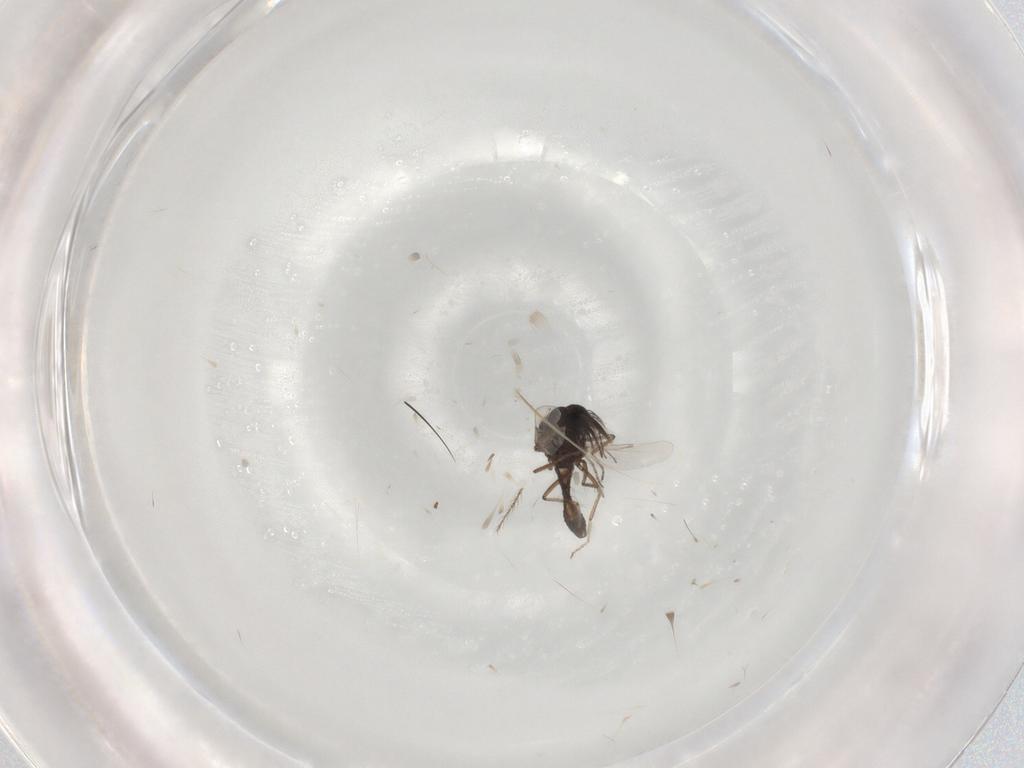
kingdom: Animalia
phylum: Arthropoda
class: Insecta
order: Diptera
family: Ceratopogonidae
